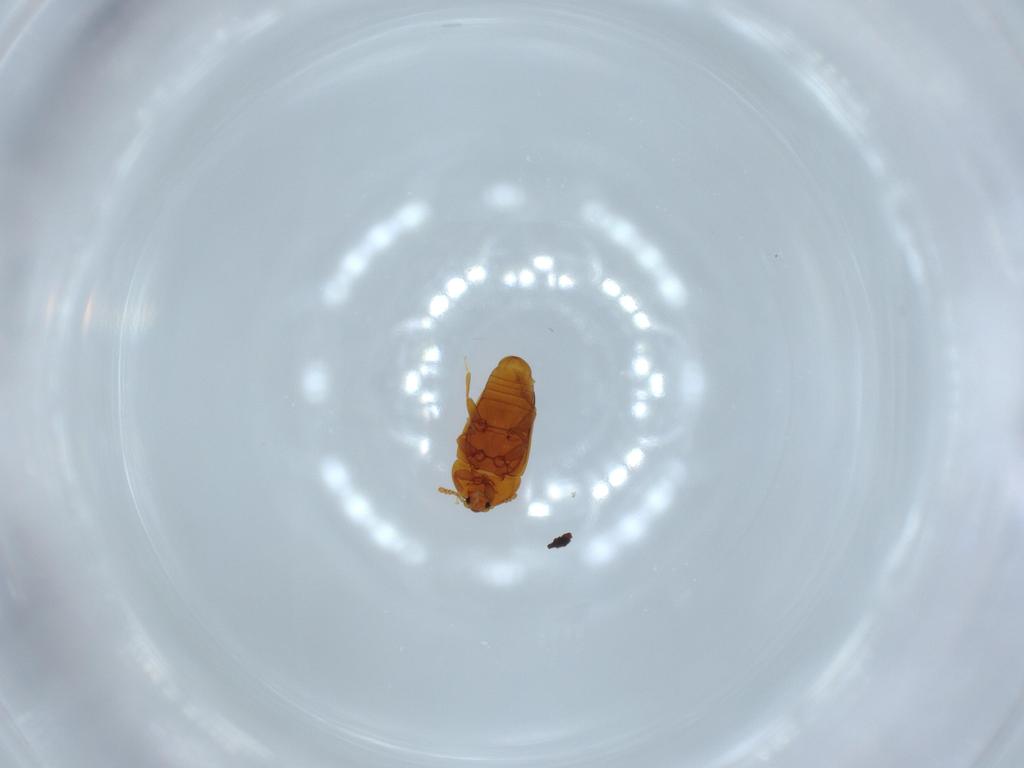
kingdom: Animalia
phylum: Arthropoda
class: Insecta
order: Coleoptera
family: Corylophidae
